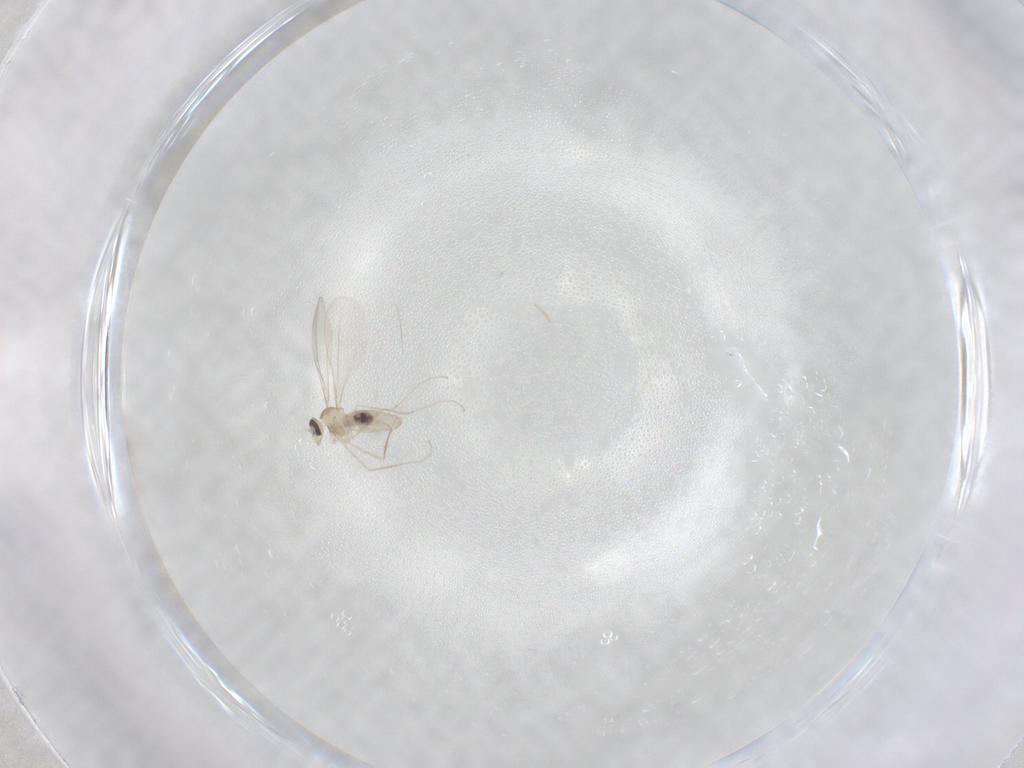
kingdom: Animalia
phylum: Arthropoda
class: Insecta
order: Diptera
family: Cecidomyiidae
